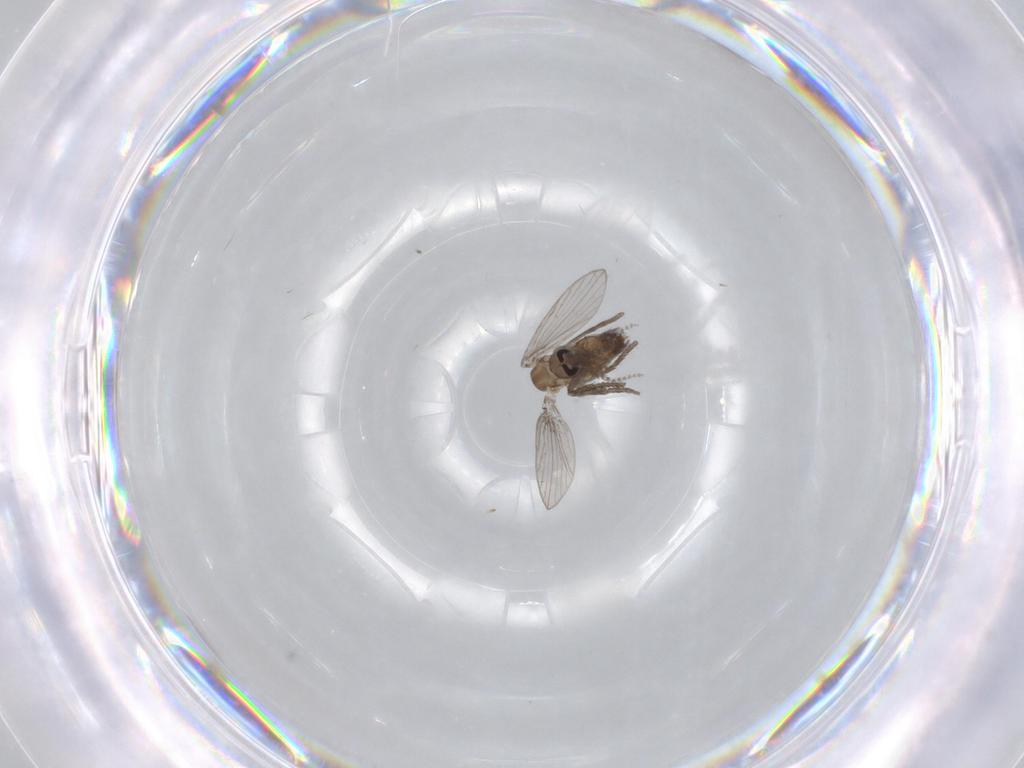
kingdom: Animalia
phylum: Arthropoda
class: Insecta
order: Diptera
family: Psychodidae
